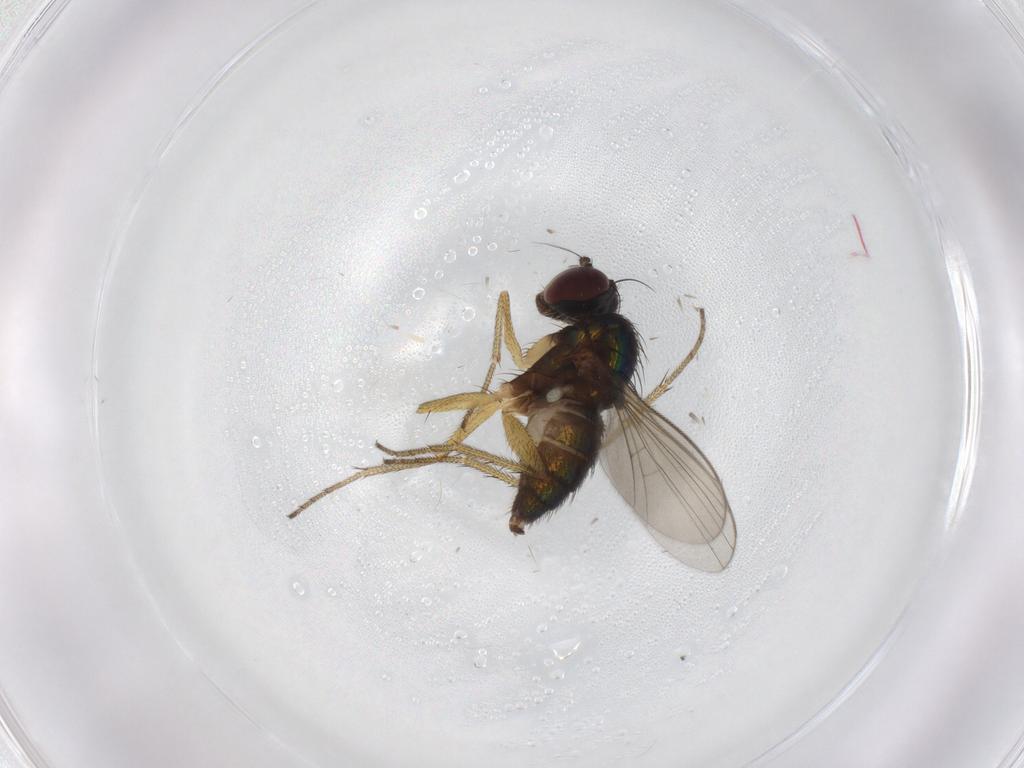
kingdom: Animalia
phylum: Arthropoda
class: Insecta
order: Diptera
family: Dolichopodidae
